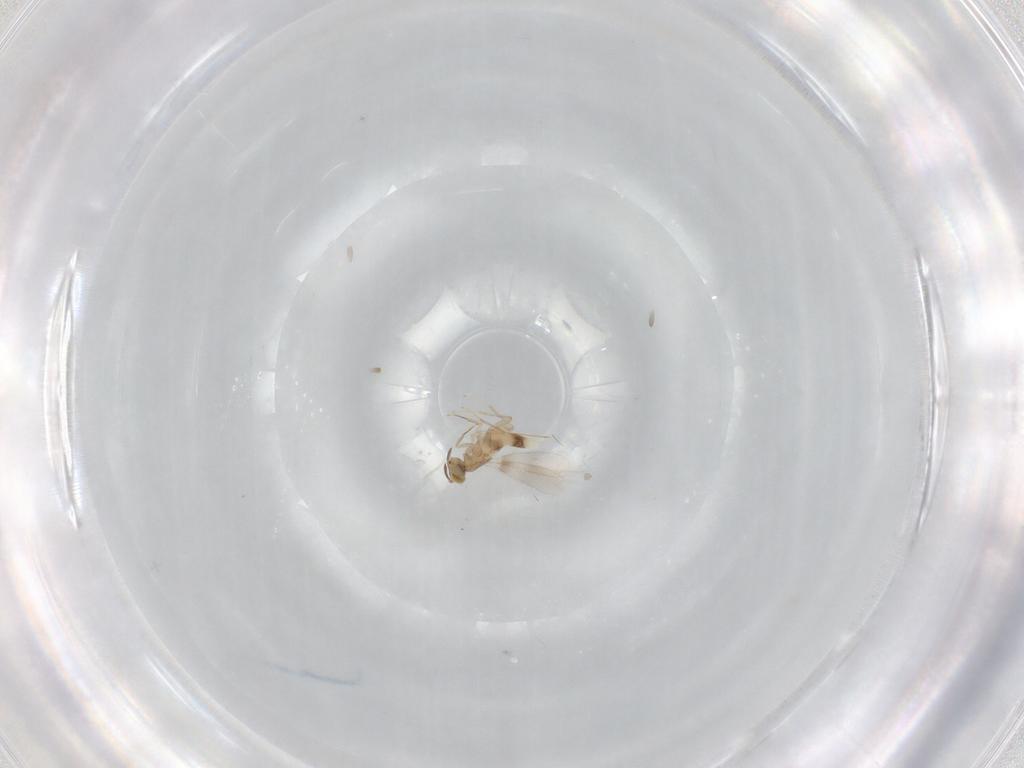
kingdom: Animalia
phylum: Arthropoda
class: Insecta
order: Hymenoptera
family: Aphelinidae
